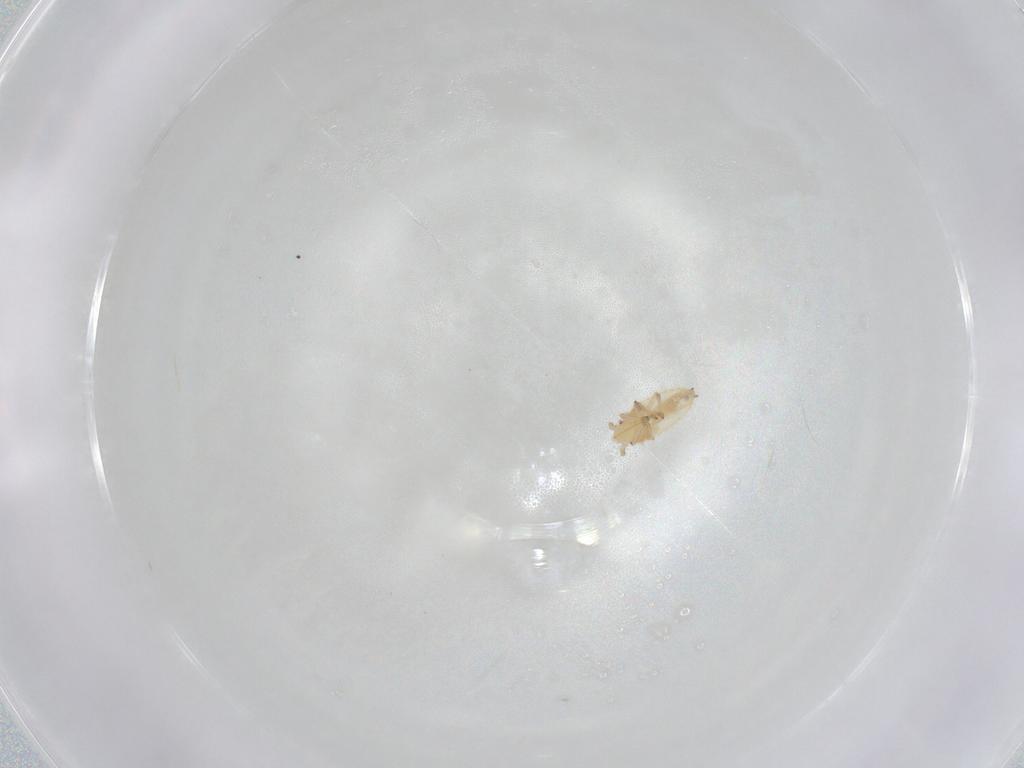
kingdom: Animalia
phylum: Arthropoda
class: Insecta
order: Hemiptera
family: Tingidae
